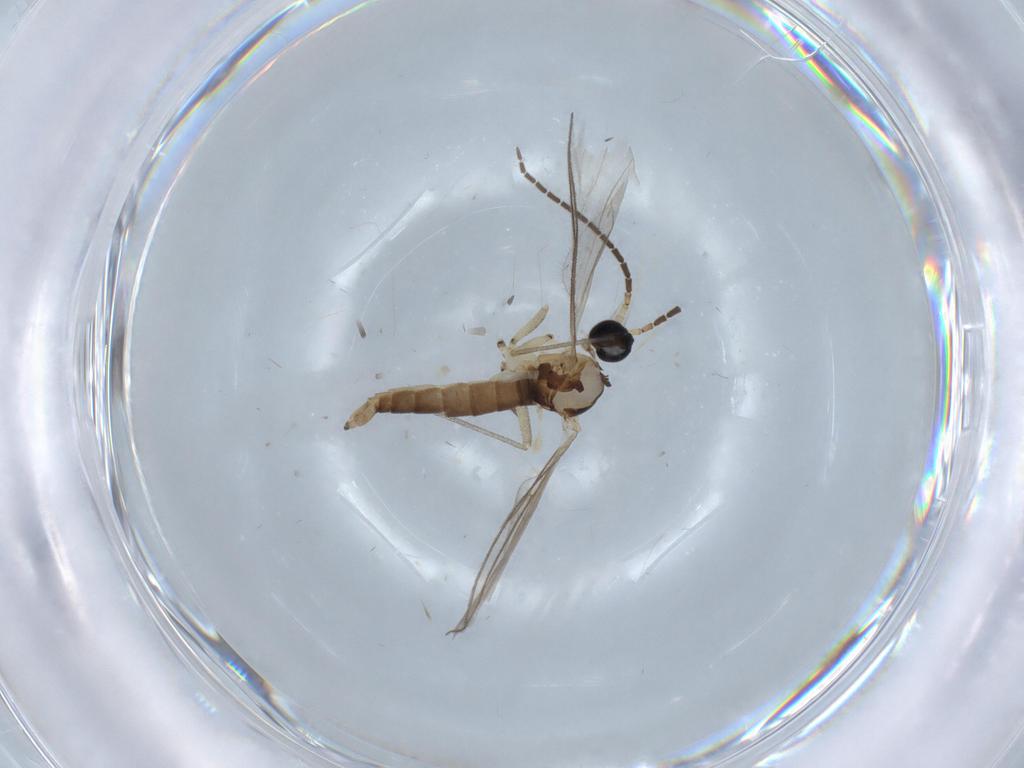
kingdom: Animalia
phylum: Arthropoda
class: Insecta
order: Diptera
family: Sciaridae
